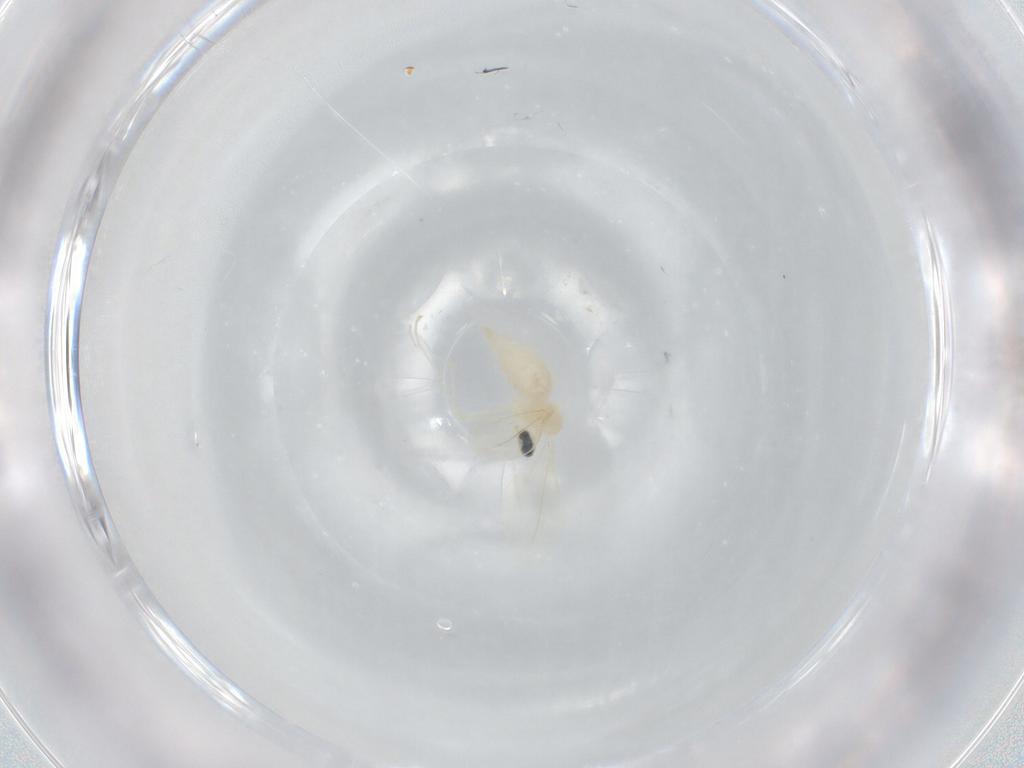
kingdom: Animalia
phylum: Arthropoda
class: Insecta
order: Diptera
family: Cecidomyiidae
